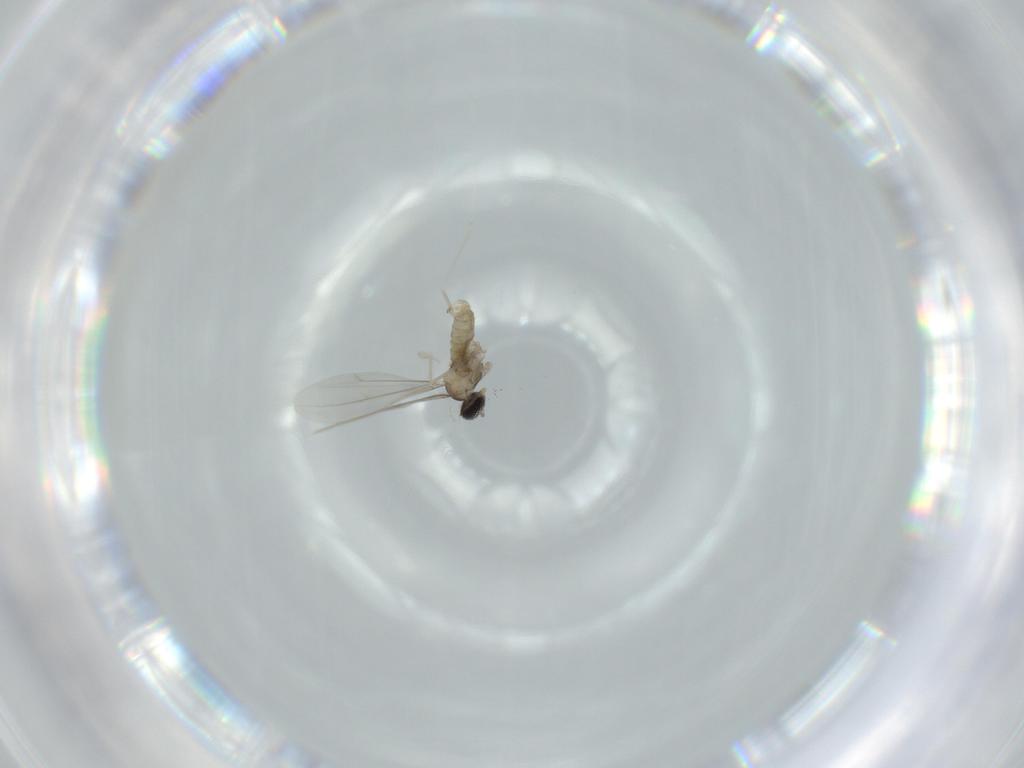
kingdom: Animalia
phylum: Arthropoda
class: Insecta
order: Diptera
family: Cecidomyiidae
